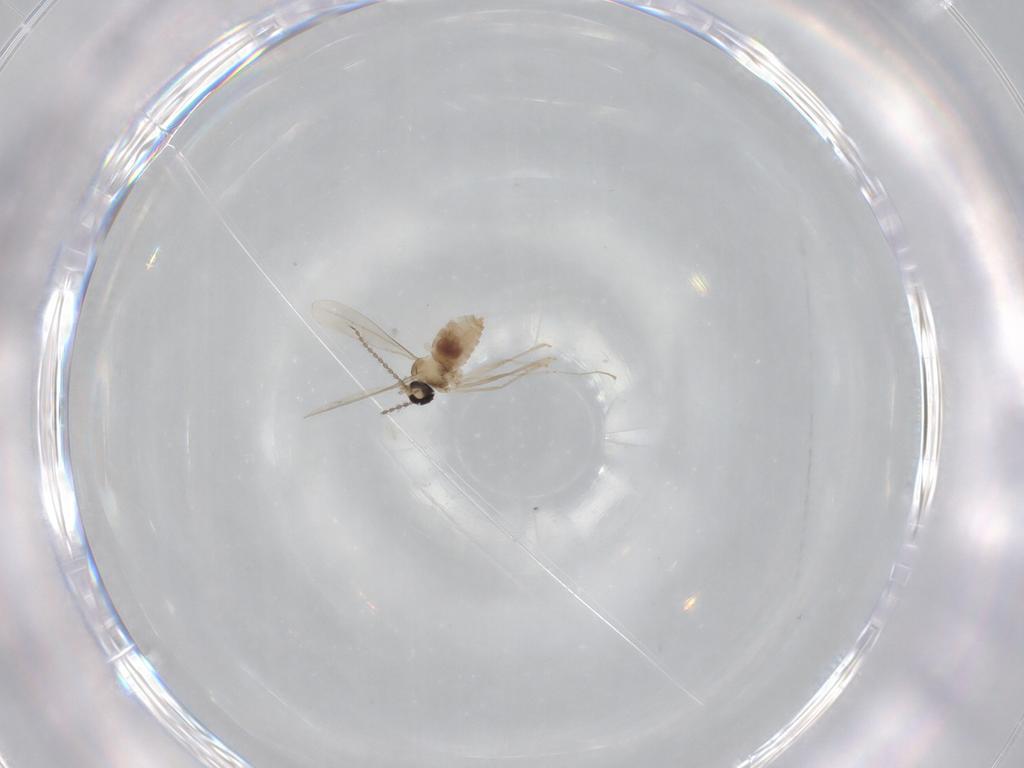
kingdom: Animalia
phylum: Arthropoda
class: Insecta
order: Diptera
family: Cecidomyiidae
